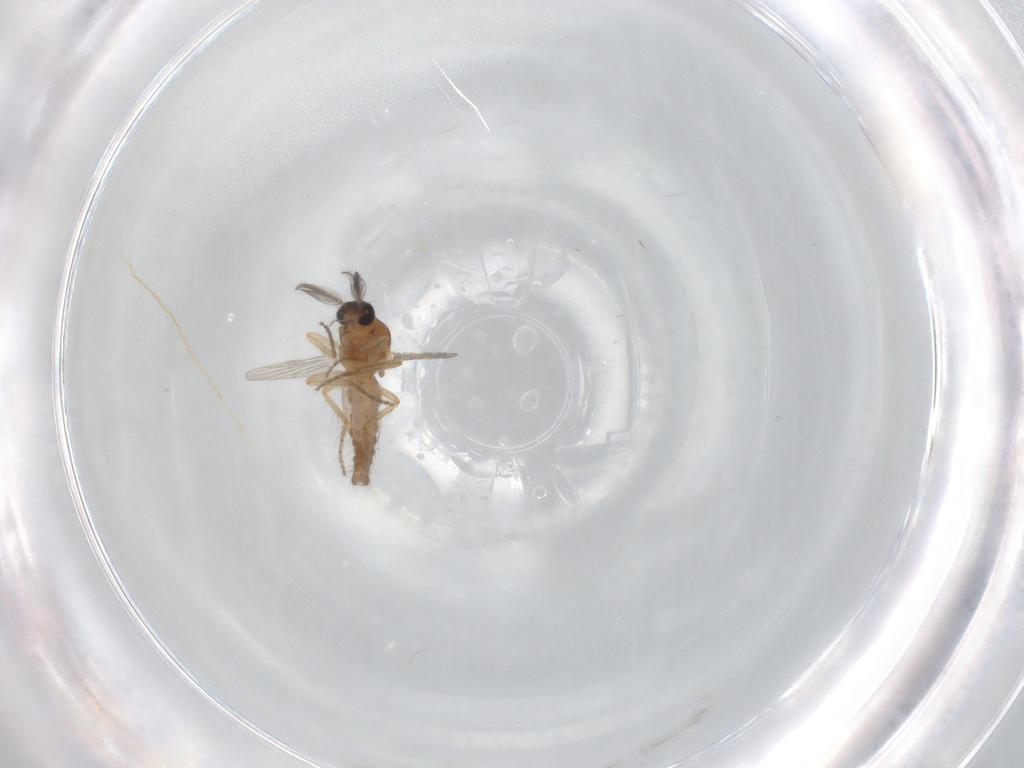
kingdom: Animalia
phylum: Arthropoda
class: Insecta
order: Diptera
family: Ceratopogonidae
